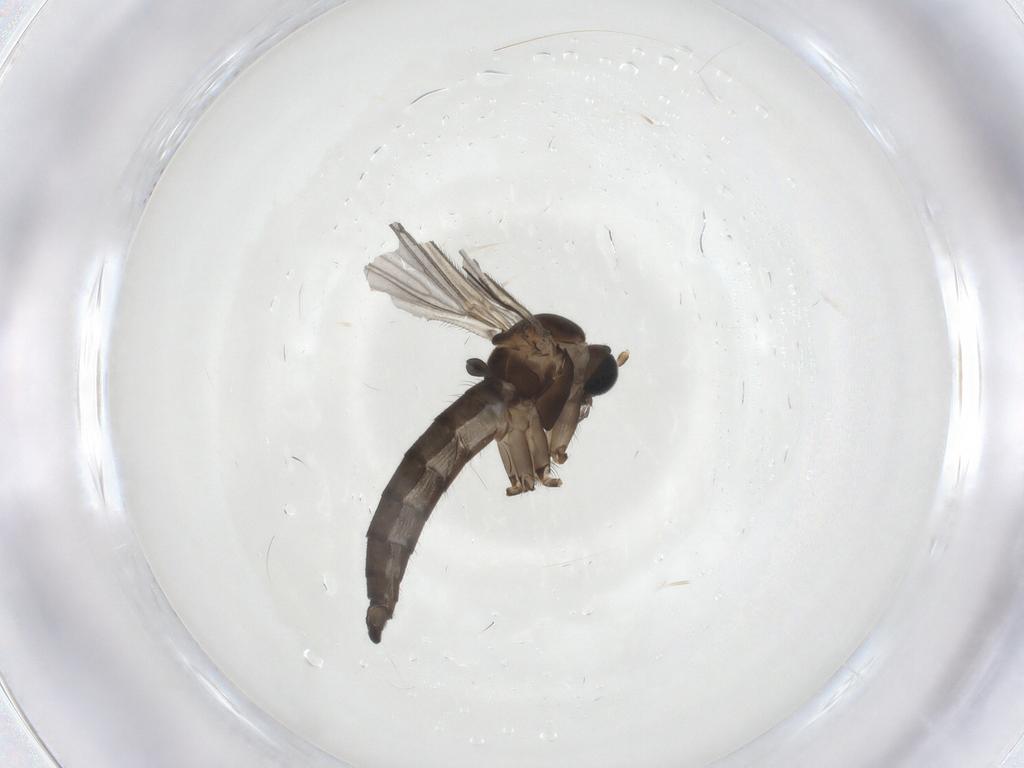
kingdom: Animalia
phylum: Arthropoda
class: Insecta
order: Diptera
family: Sciaridae
